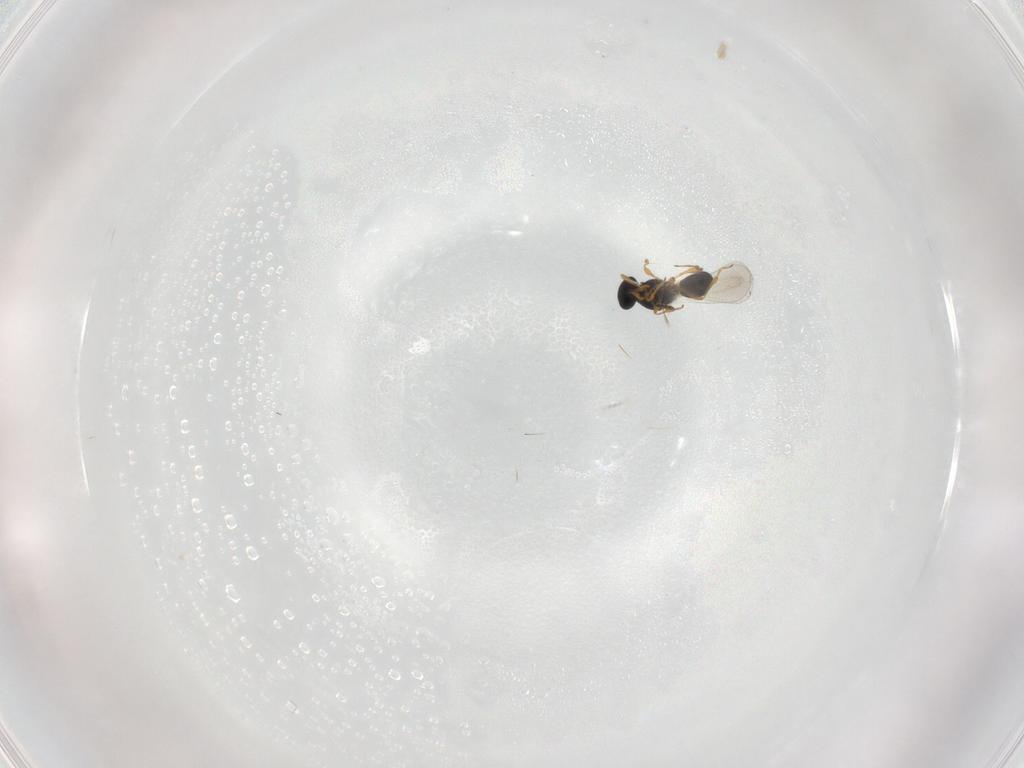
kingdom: Animalia
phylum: Arthropoda
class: Insecta
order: Hymenoptera
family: Platygastridae
